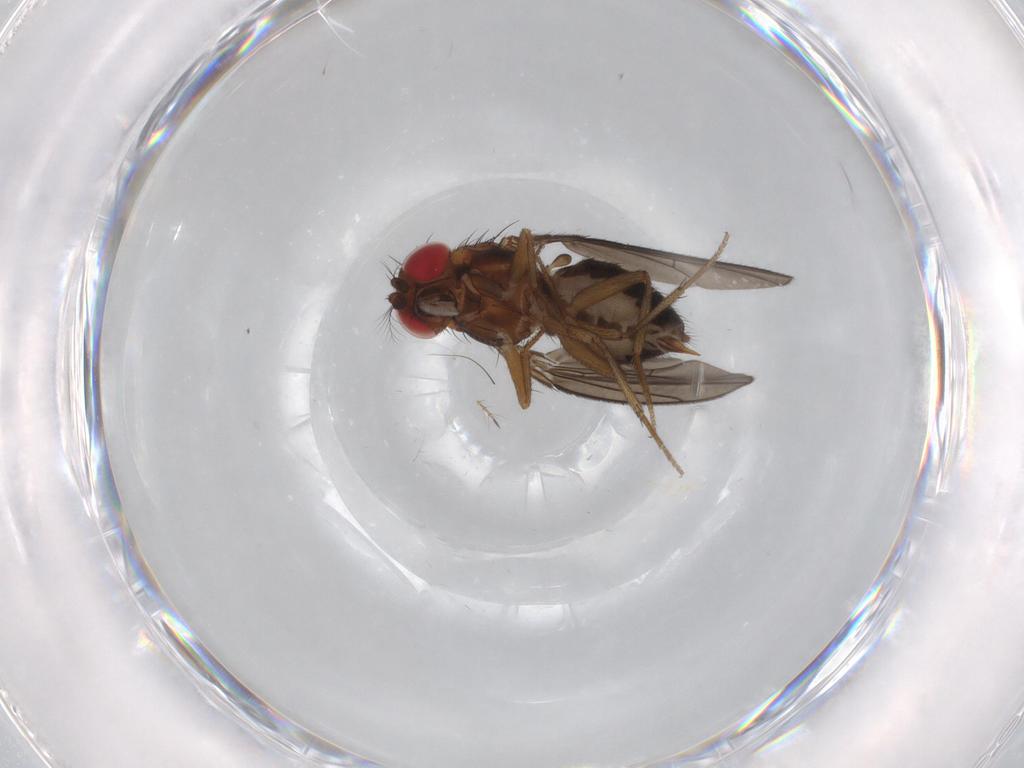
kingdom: Animalia
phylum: Arthropoda
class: Insecta
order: Diptera
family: Drosophilidae
